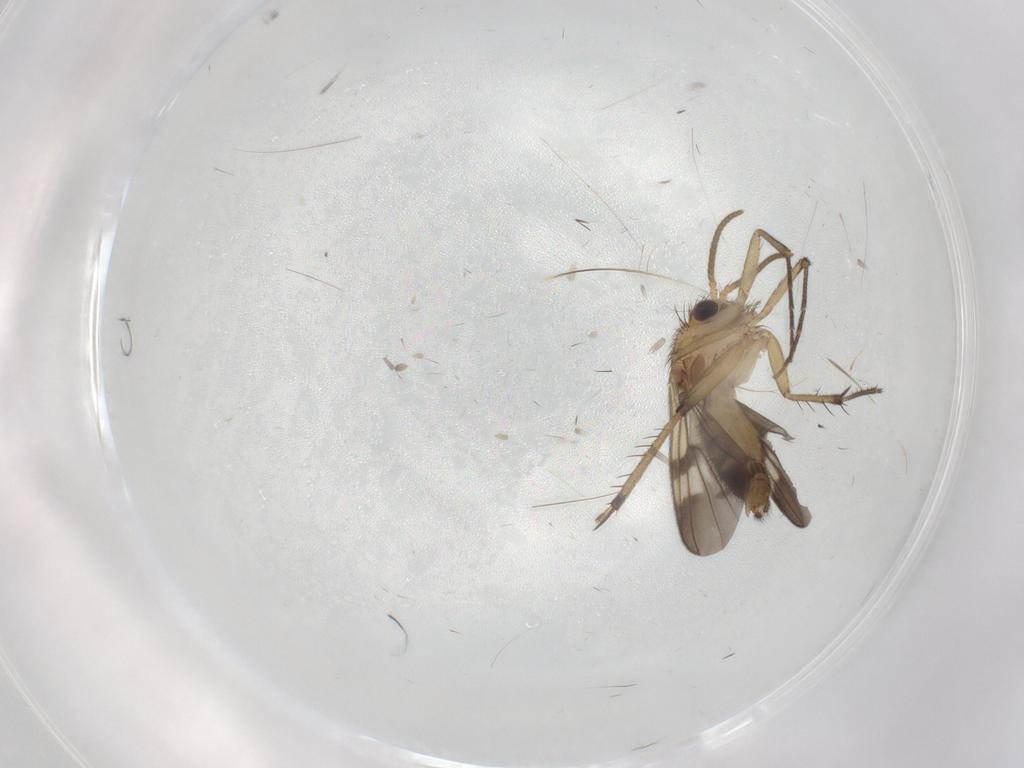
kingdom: Animalia
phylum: Arthropoda
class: Insecta
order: Diptera
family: Mycetophilidae
